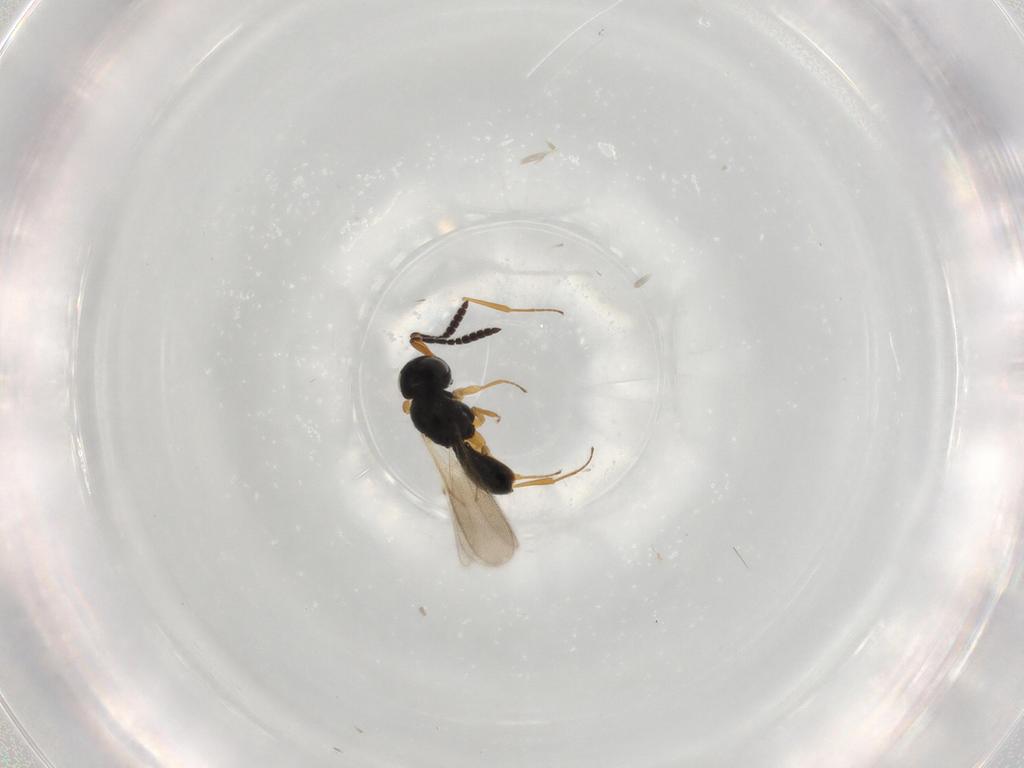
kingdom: Animalia
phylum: Arthropoda
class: Insecta
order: Hymenoptera
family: Scelionidae
